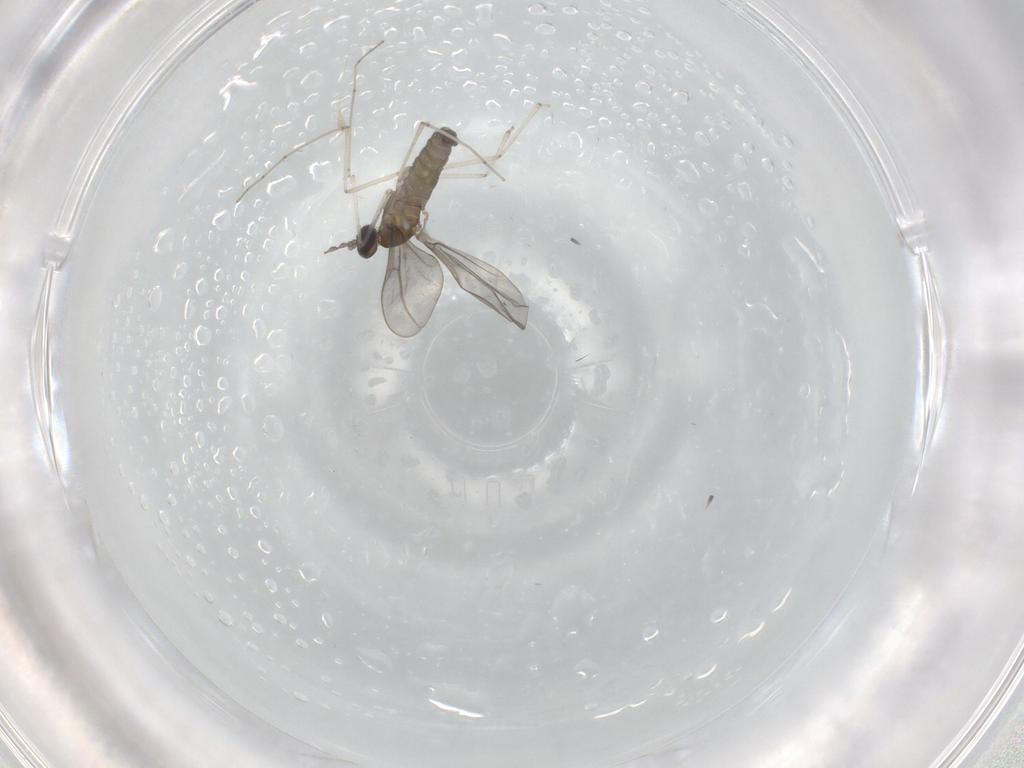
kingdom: Animalia
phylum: Arthropoda
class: Insecta
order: Diptera
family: Cecidomyiidae
